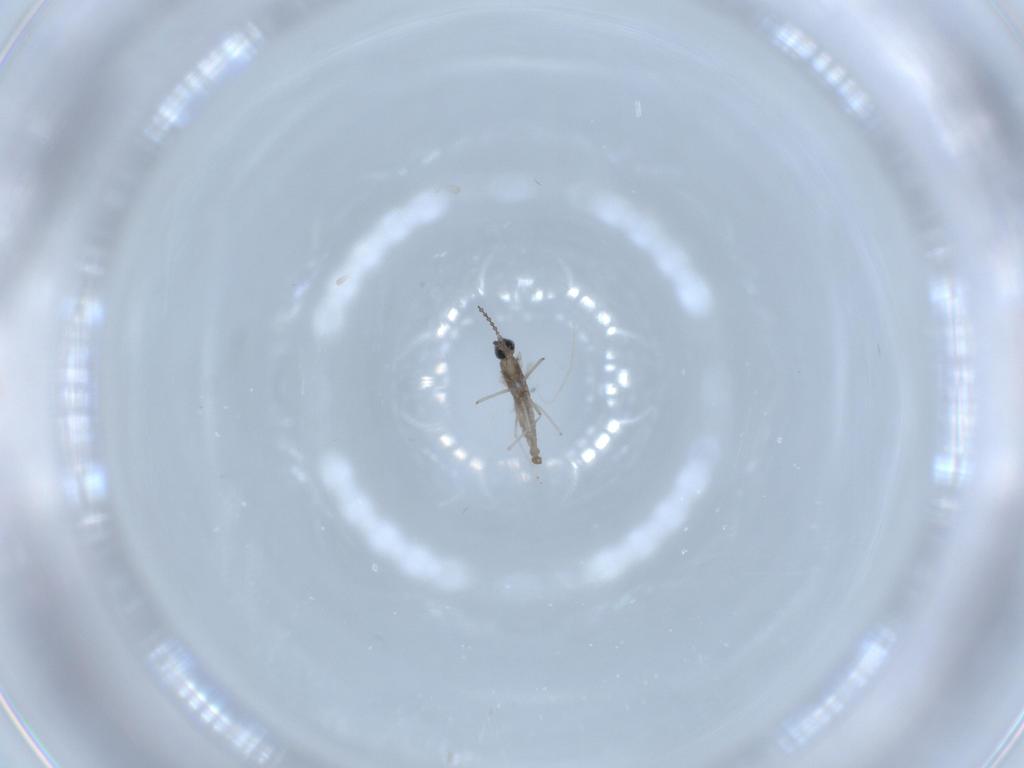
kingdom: Animalia
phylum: Arthropoda
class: Insecta
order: Diptera
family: Cecidomyiidae
